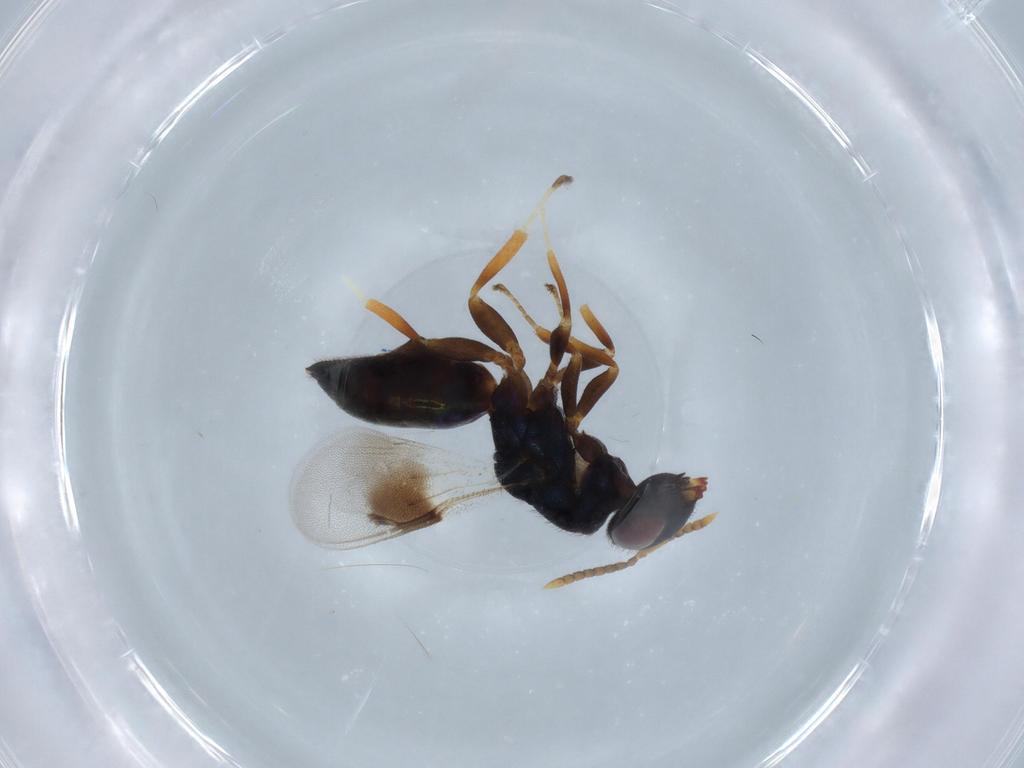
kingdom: Animalia
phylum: Arthropoda
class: Insecta
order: Hymenoptera
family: Pteromalidae
